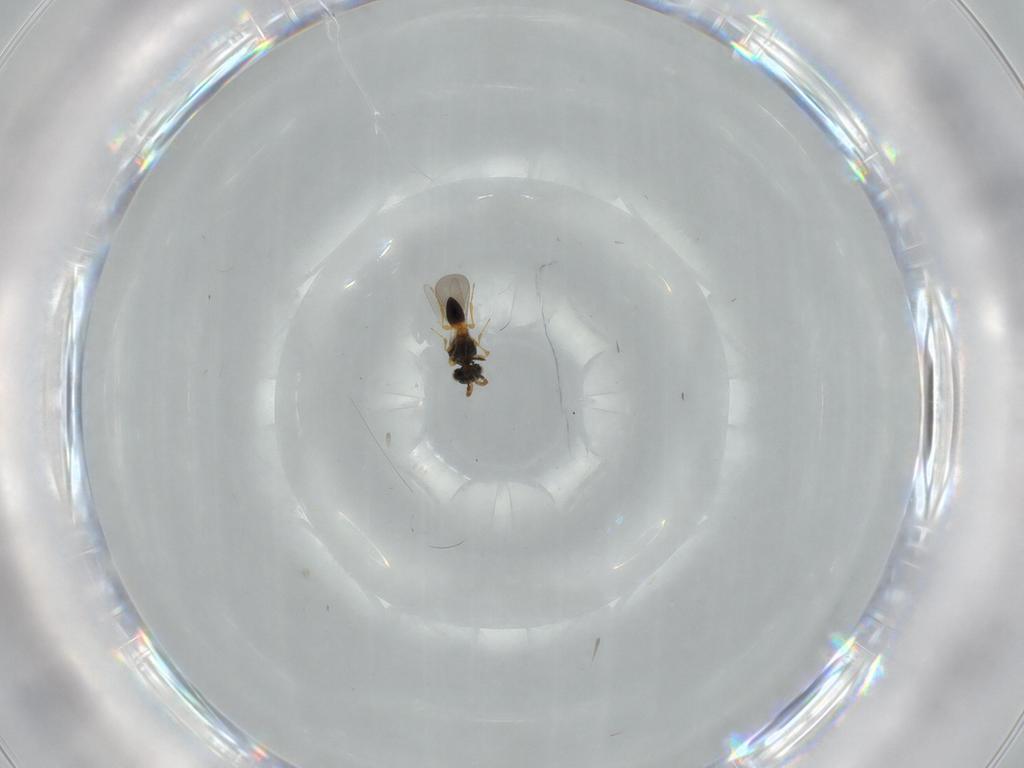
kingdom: Animalia
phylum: Arthropoda
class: Insecta
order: Hymenoptera
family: Platygastridae
